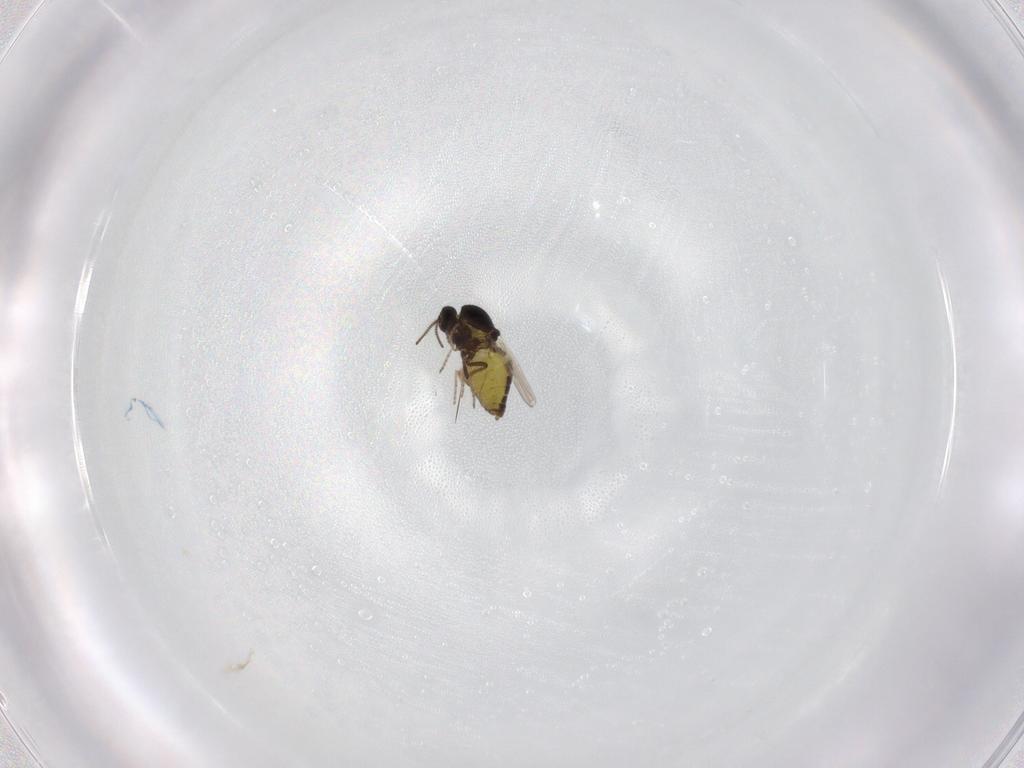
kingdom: Animalia
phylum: Arthropoda
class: Insecta
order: Diptera
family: Ceratopogonidae
